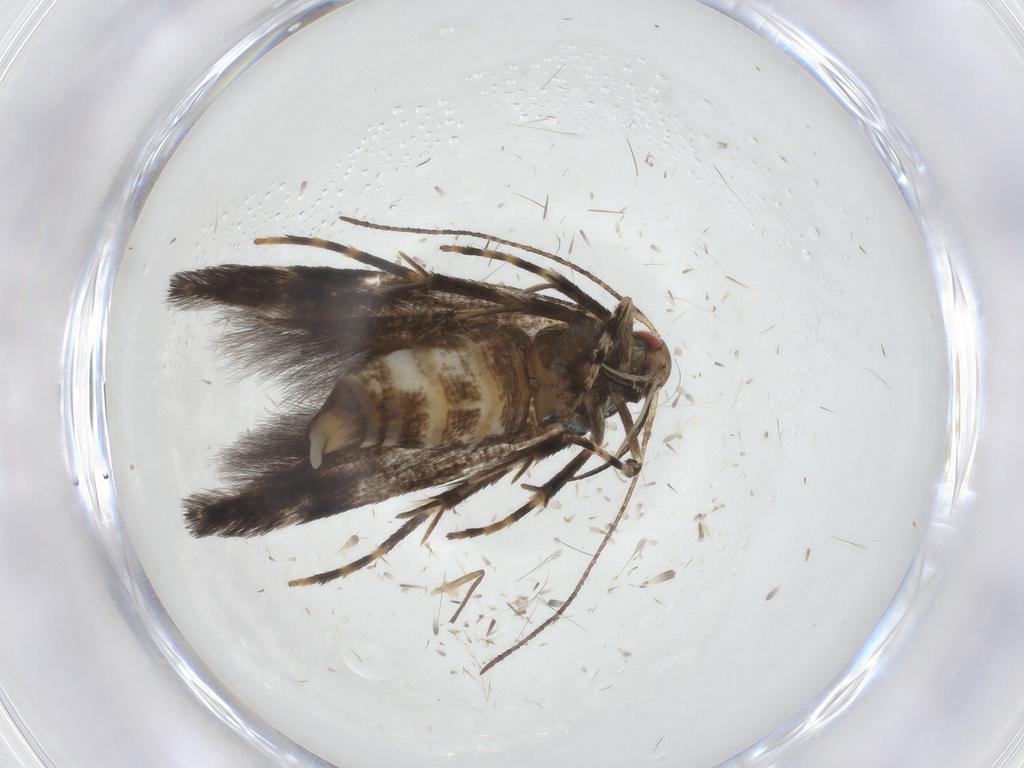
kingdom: Animalia
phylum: Arthropoda
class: Insecta
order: Lepidoptera
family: Cosmopterigidae
